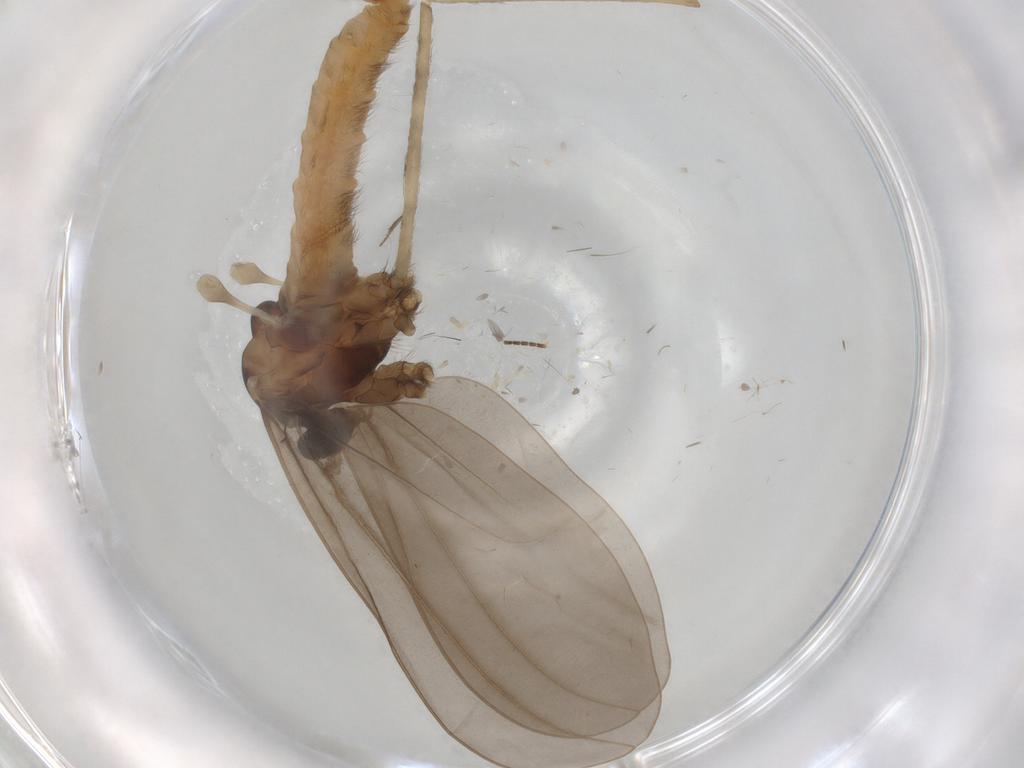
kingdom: Animalia
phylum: Arthropoda
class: Insecta
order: Diptera
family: Cecidomyiidae
